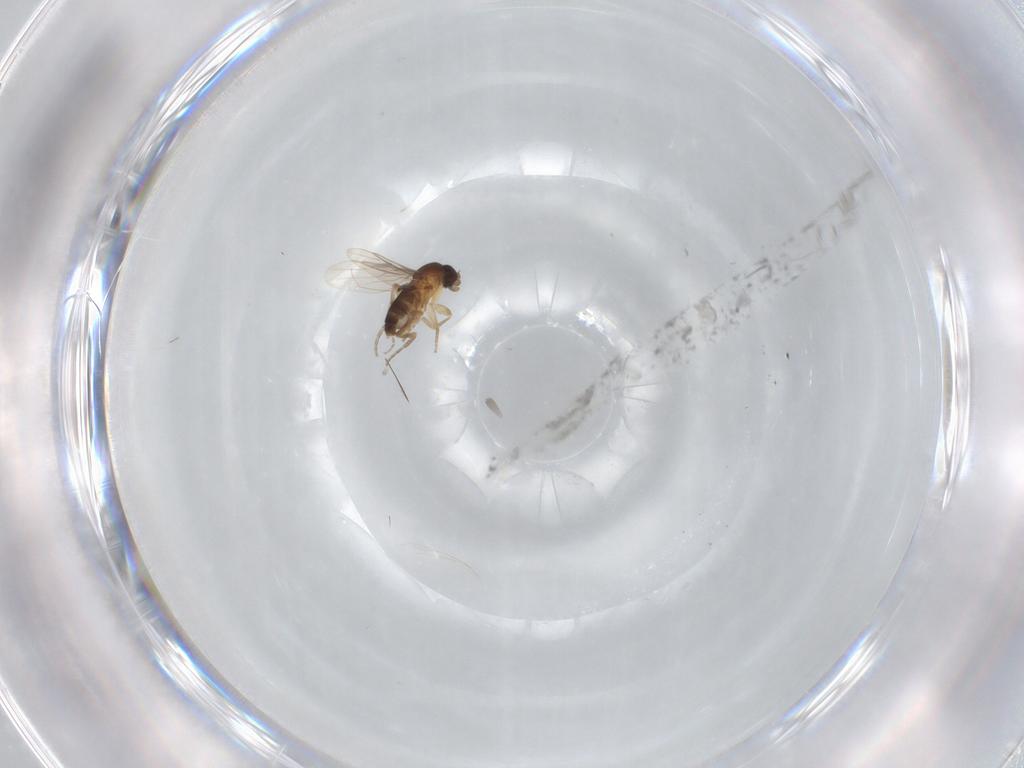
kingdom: Animalia
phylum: Arthropoda
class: Insecta
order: Diptera
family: Phoridae
